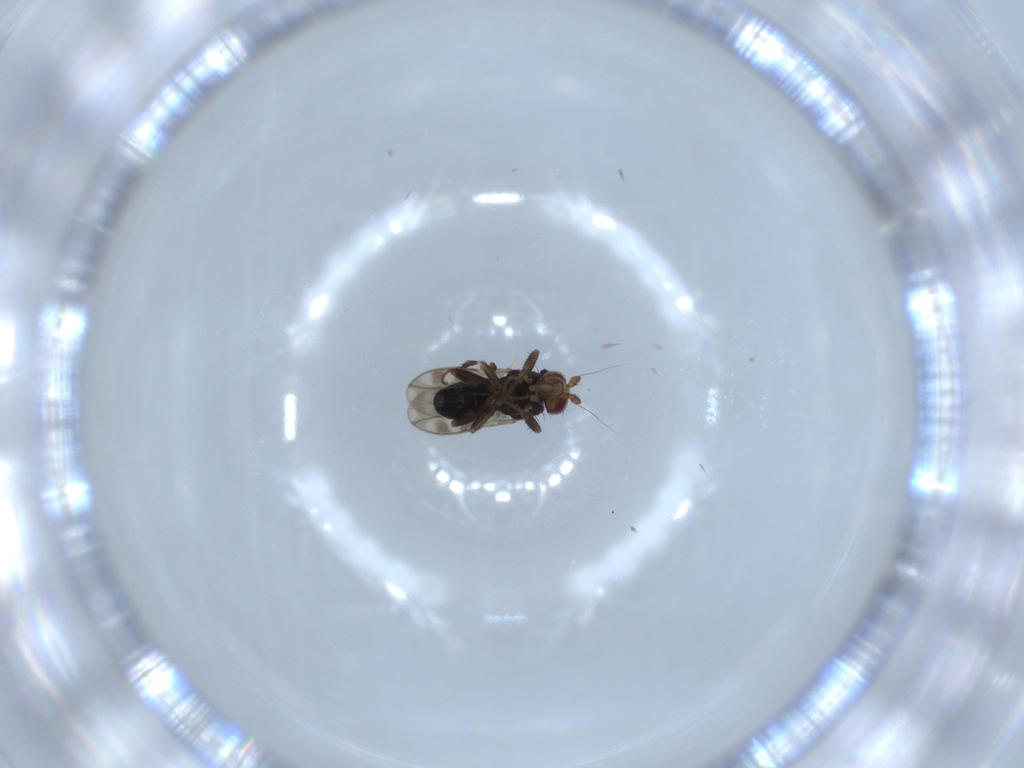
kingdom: Animalia
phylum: Arthropoda
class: Insecta
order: Diptera
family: Sphaeroceridae
